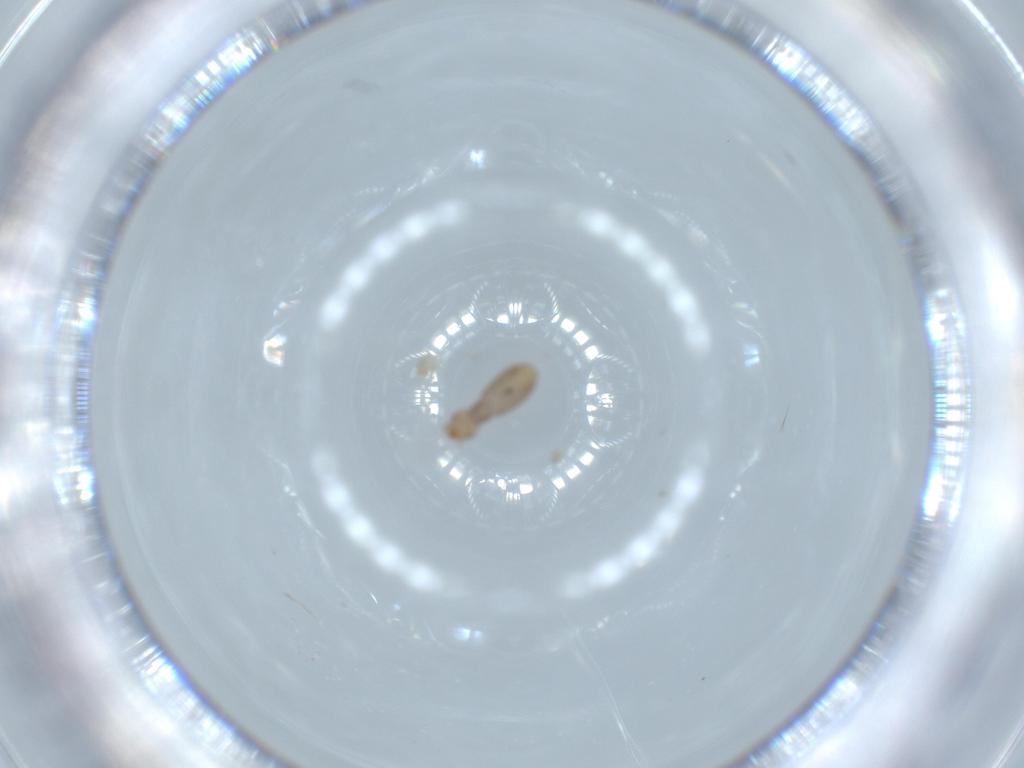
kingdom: Animalia
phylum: Arthropoda
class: Insecta
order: Psocodea
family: Liposcelididae
